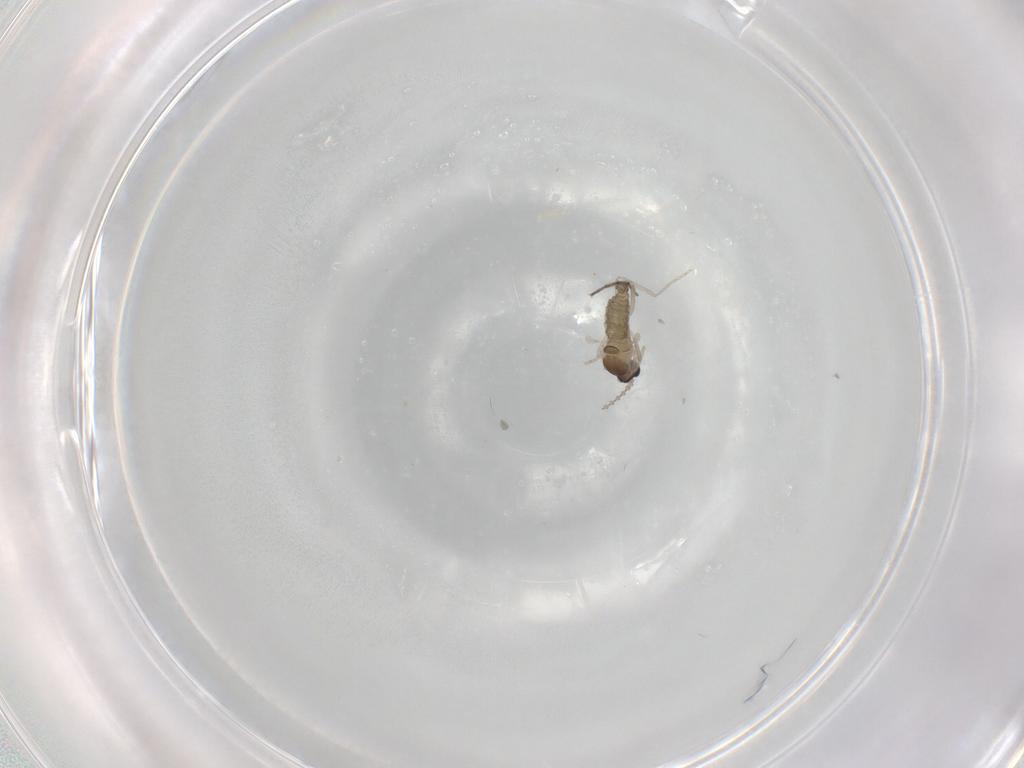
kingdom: Animalia
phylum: Arthropoda
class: Insecta
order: Diptera
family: Cecidomyiidae
